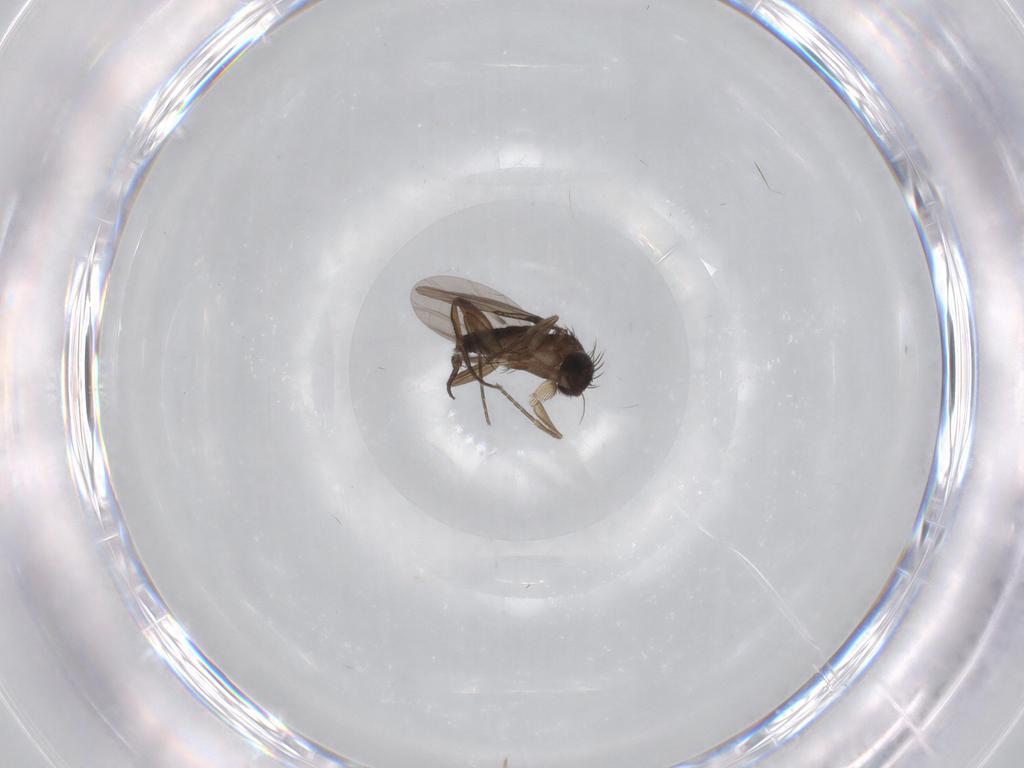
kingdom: Animalia
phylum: Arthropoda
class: Insecta
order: Diptera
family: Phoridae
